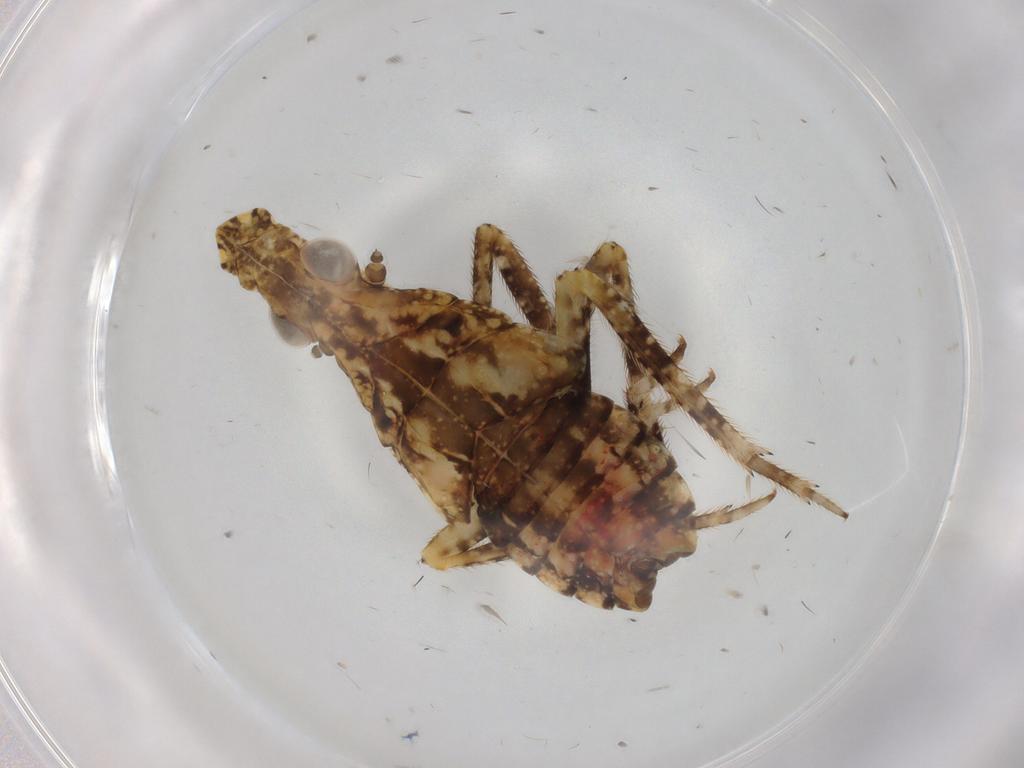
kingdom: Animalia
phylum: Arthropoda
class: Insecta
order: Hemiptera
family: Fulgoridae
